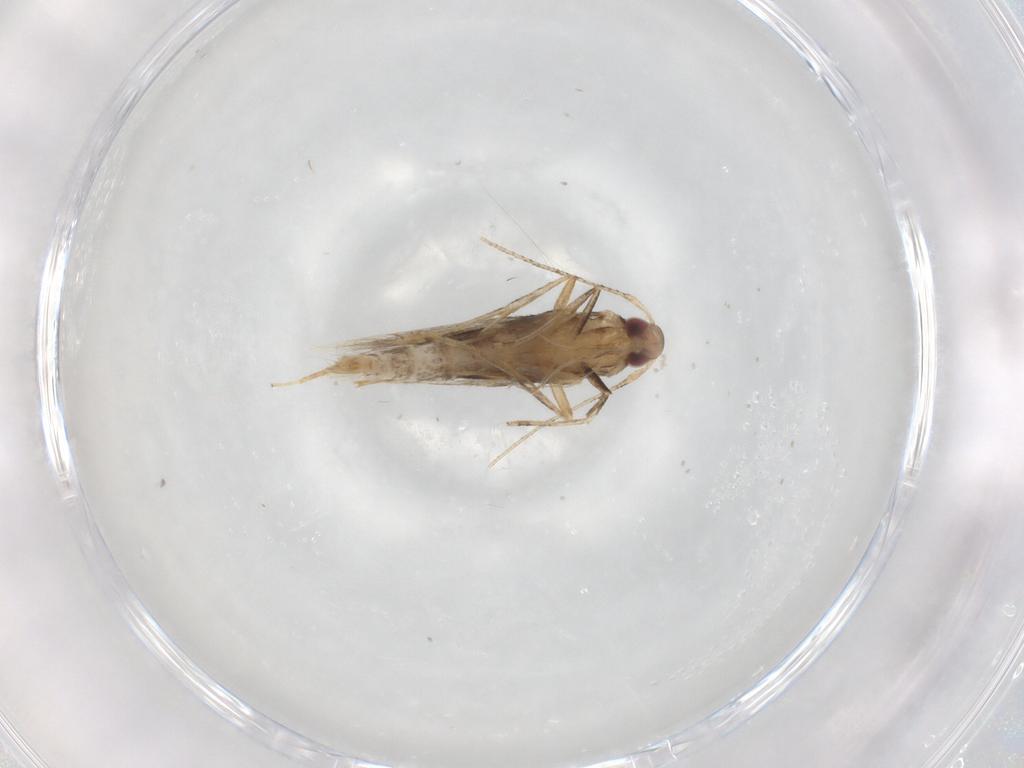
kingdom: Animalia
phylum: Arthropoda
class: Insecta
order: Lepidoptera
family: Cosmopterigidae
